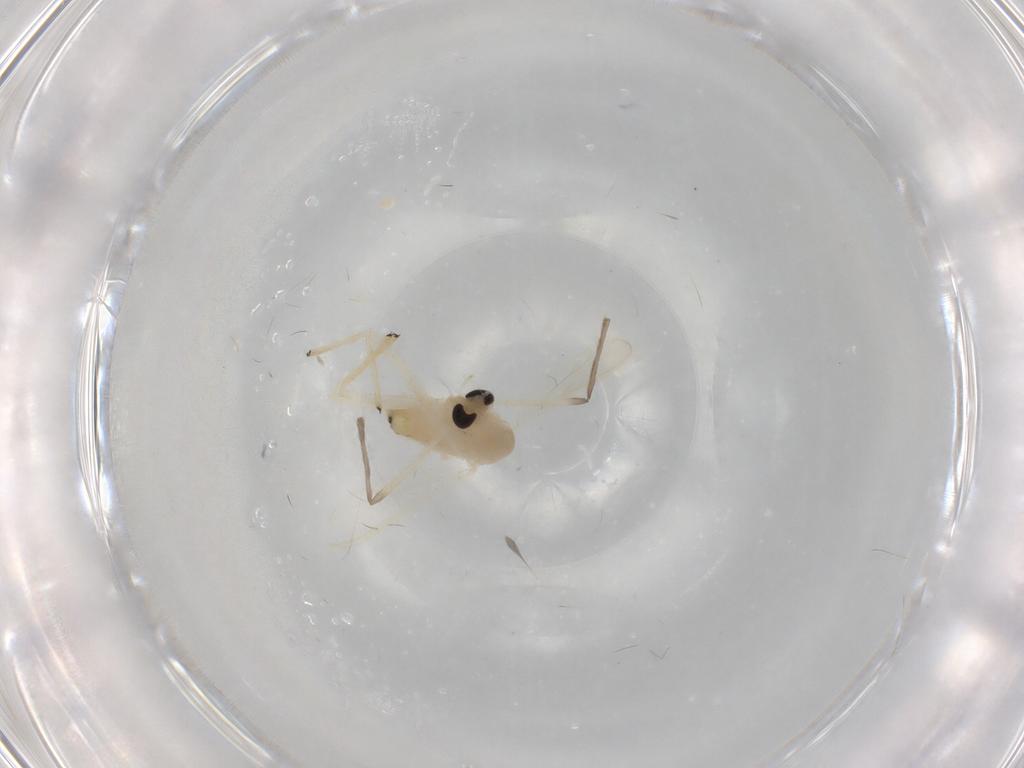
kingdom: Animalia
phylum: Arthropoda
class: Insecta
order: Diptera
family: Chironomidae
